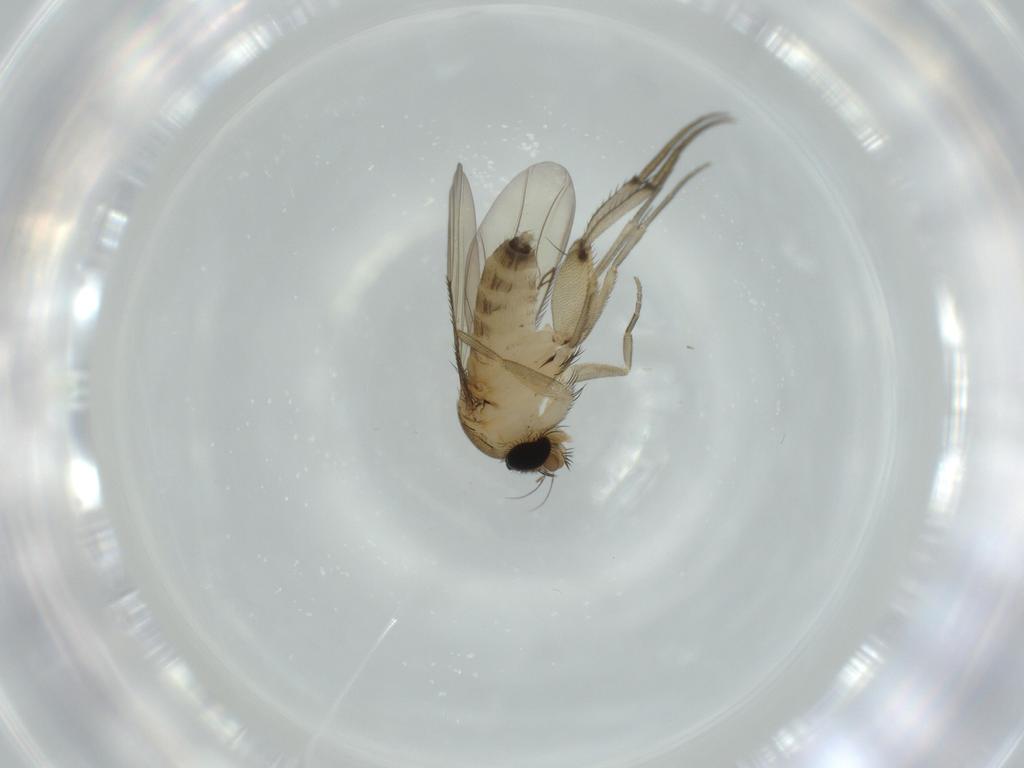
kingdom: Animalia
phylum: Arthropoda
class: Insecta
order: Diptera
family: Phoridae
